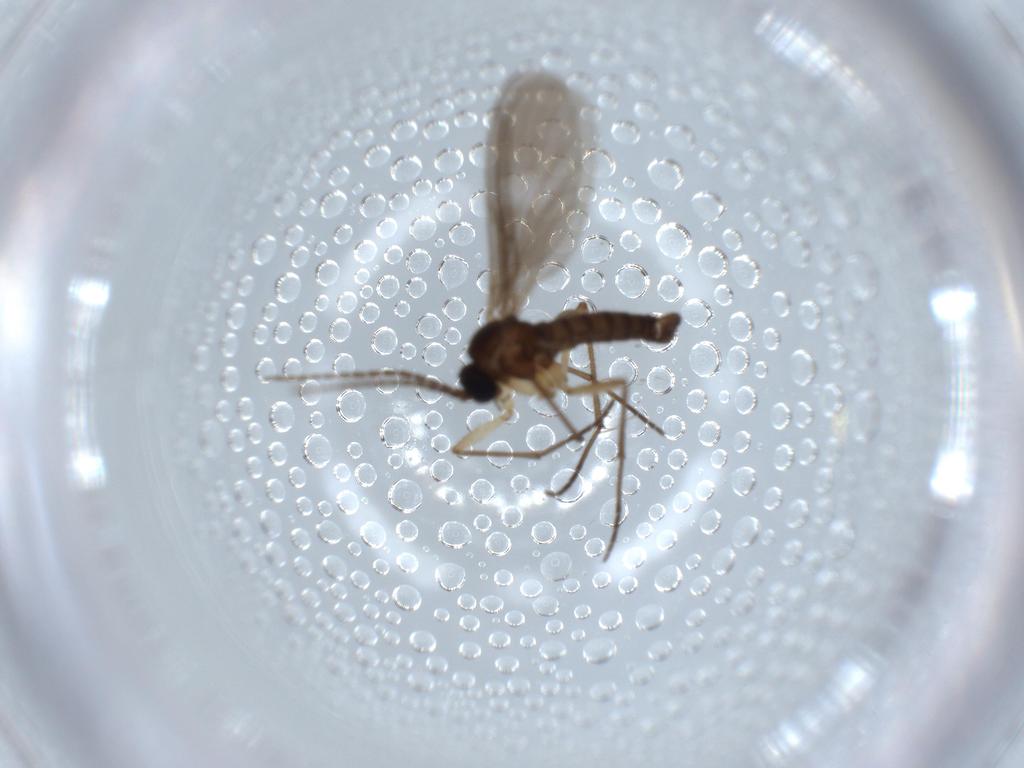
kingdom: Animalia
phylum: Arthropoda
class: Insecta
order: Diptera
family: Sciaridae
